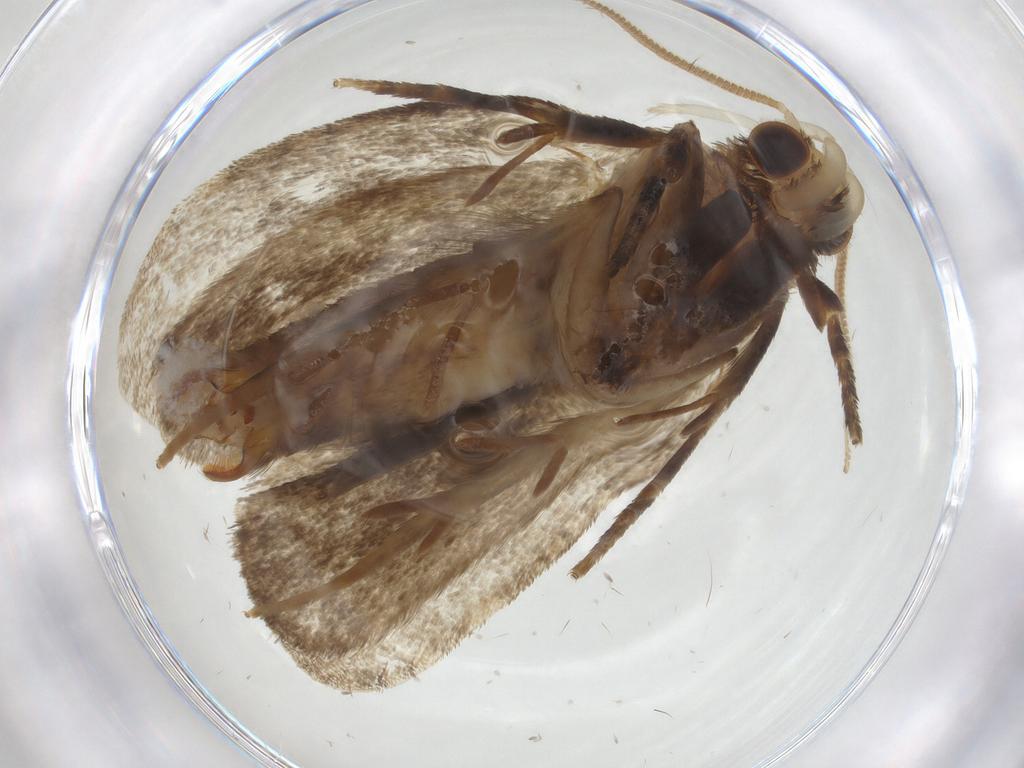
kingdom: Animalia
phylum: Arthropoda
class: Insecta
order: Lepidoptera
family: Tineidae
